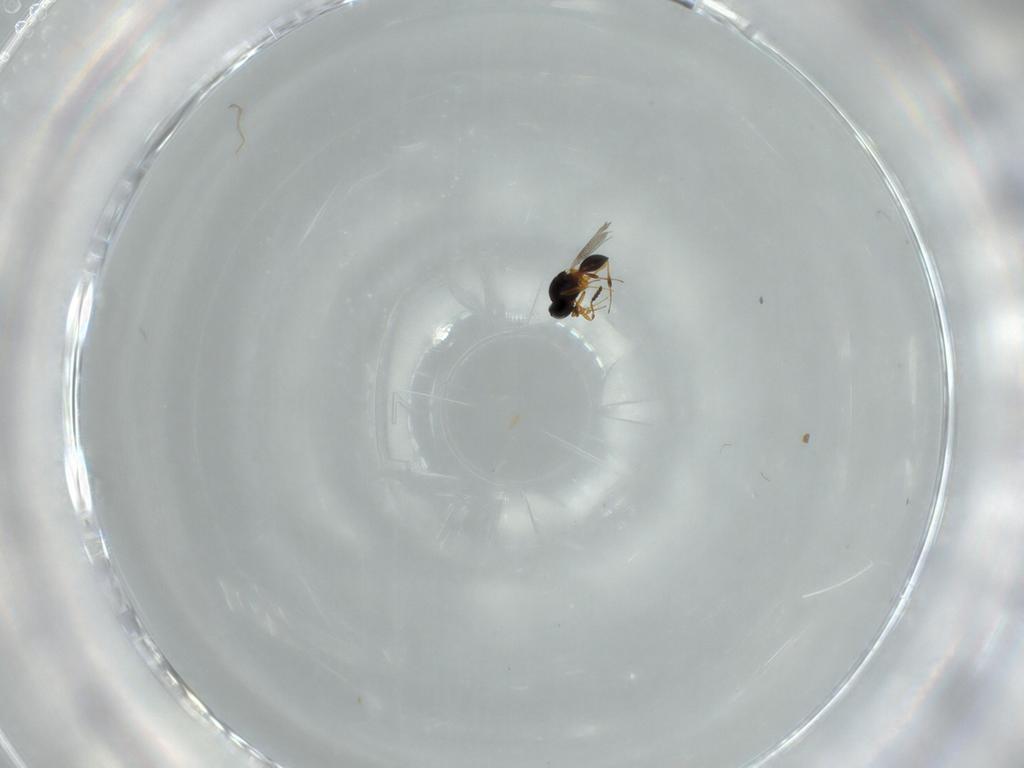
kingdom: Animalia
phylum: Arthropoda
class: Insecta
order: Hymenoptera
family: Platygastridae
